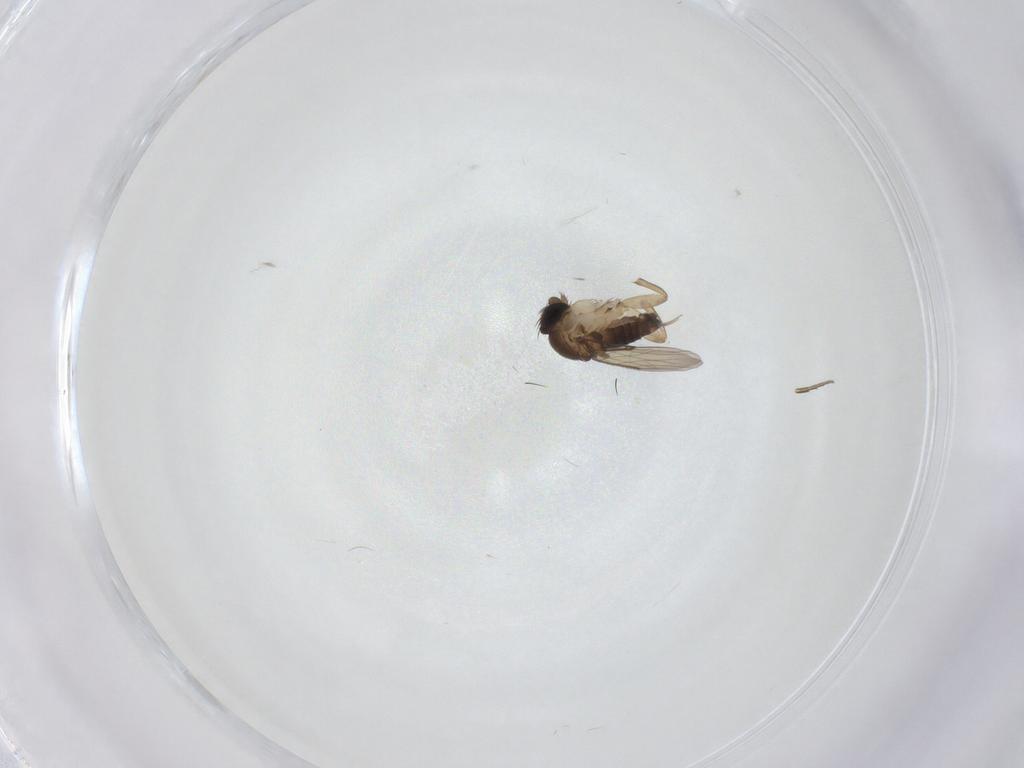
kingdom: Animalia
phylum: Arthropoda
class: Insecta
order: Diptera
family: Phoridae
